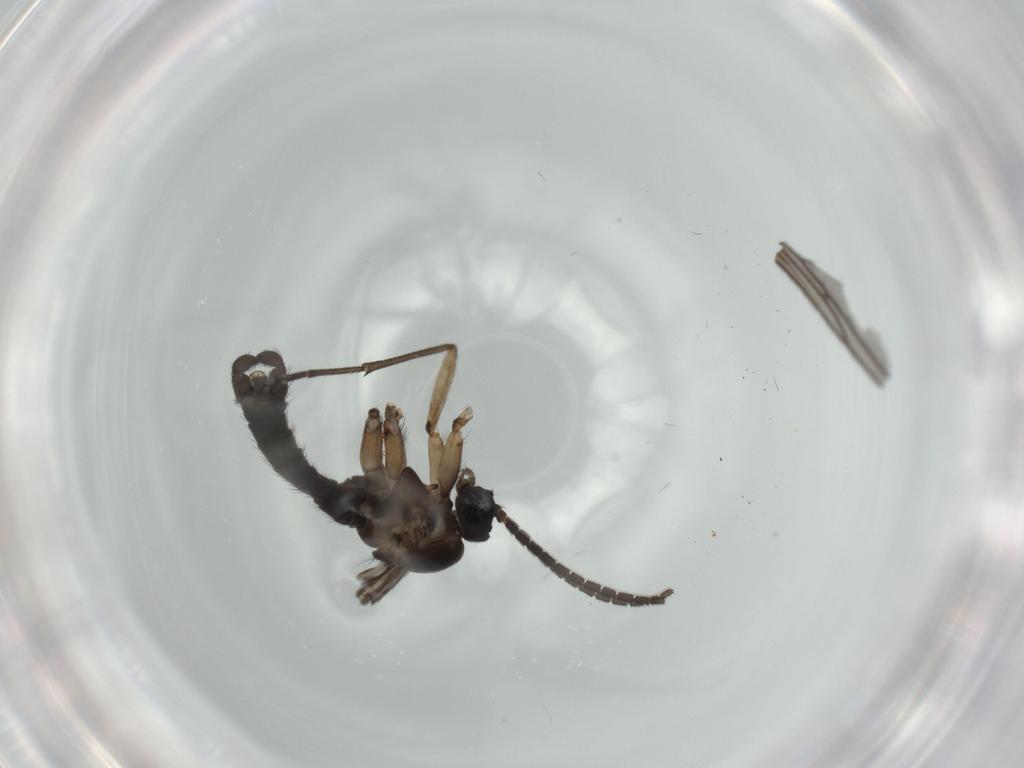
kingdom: Animalia
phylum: Arthropoda
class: Insecta
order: Diptera
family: Sciaridae
